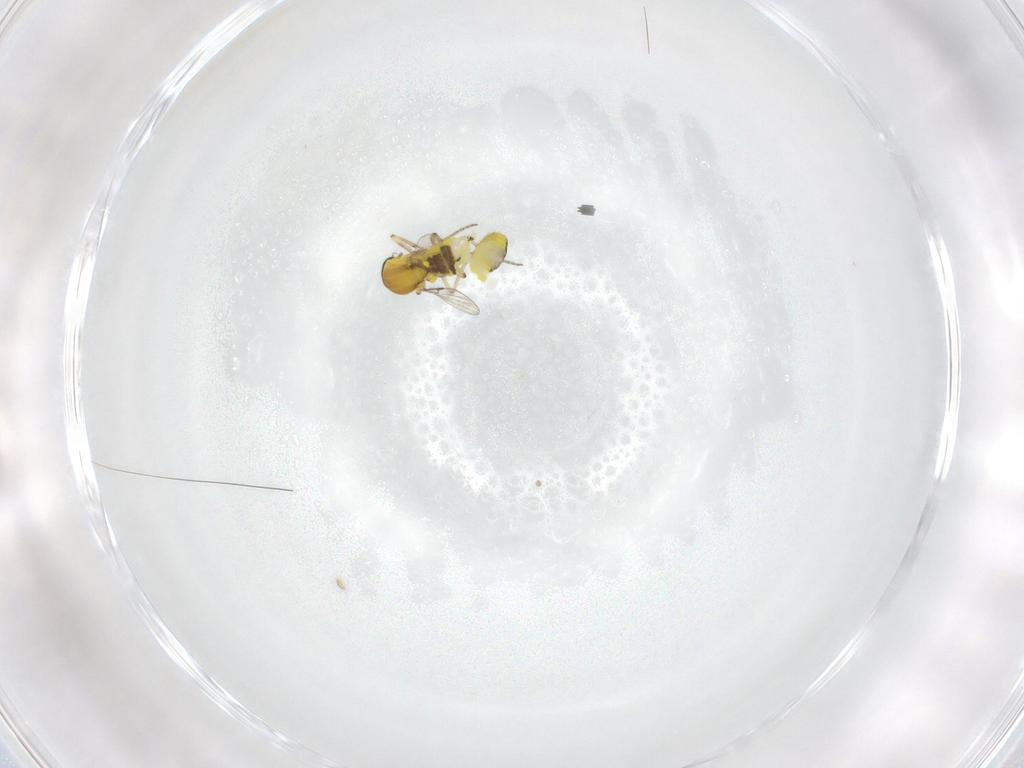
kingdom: Animalia
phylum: Arthropoda
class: Insecta
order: Diptera
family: Ceratopogonidae
